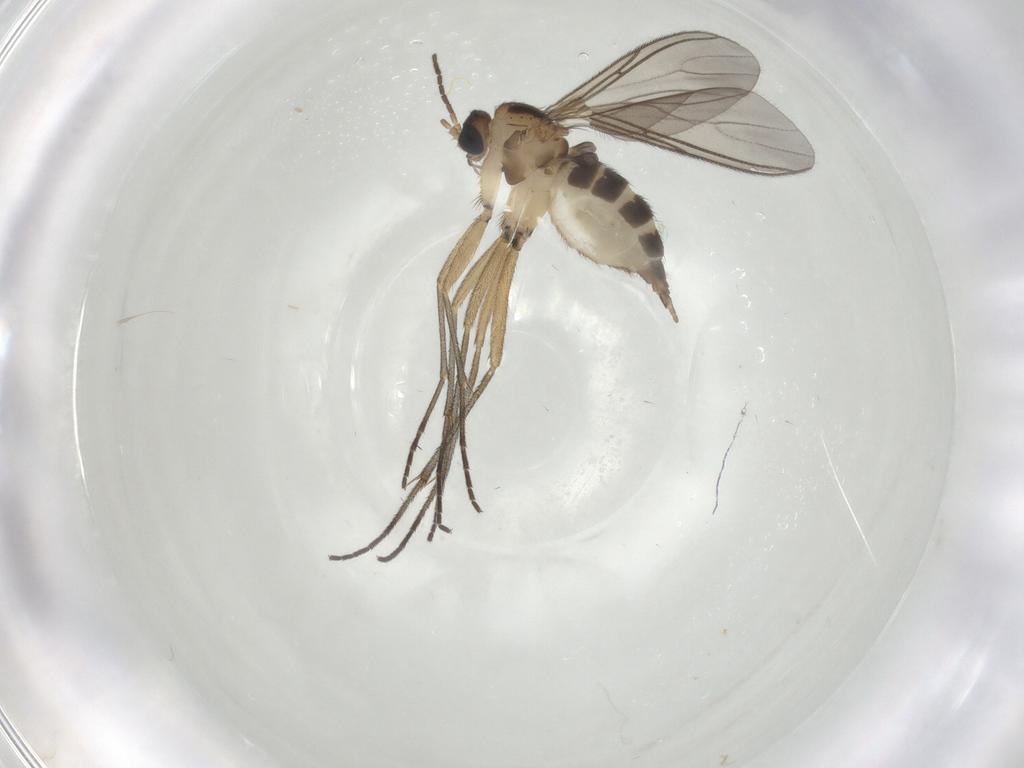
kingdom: Animalia
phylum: Arthropoda
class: Insecta
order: Diptera
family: Sciaridae
